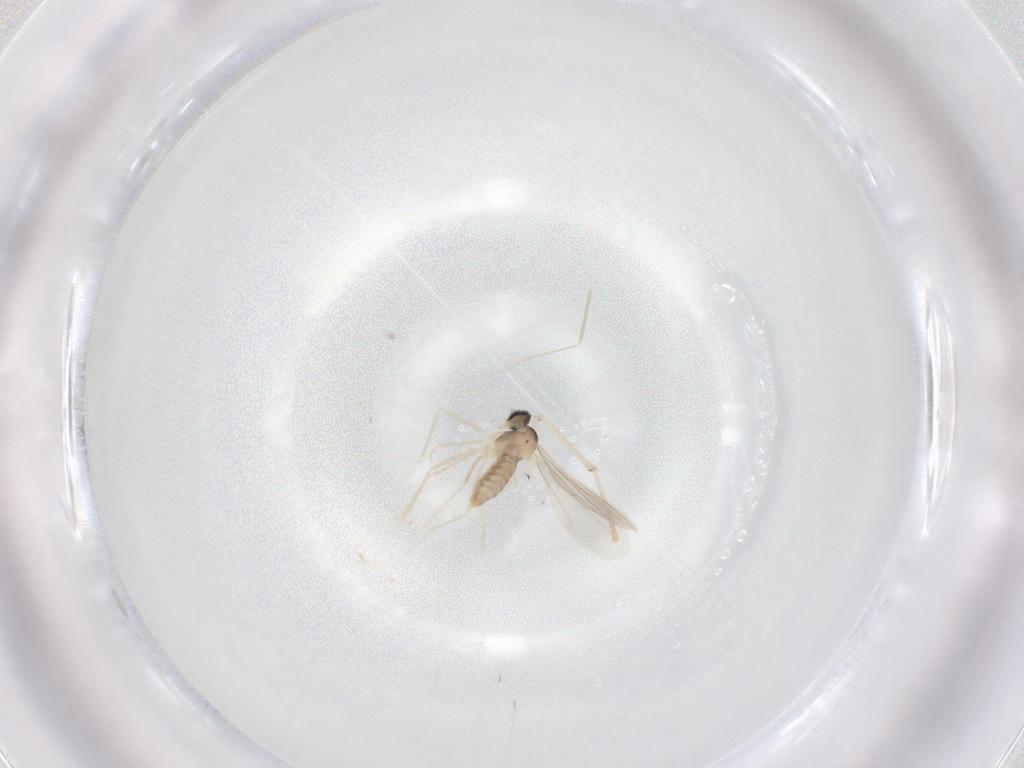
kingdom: Animalia
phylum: Arthropoda
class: Insecta
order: Diptera
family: Cecidomyiidae
